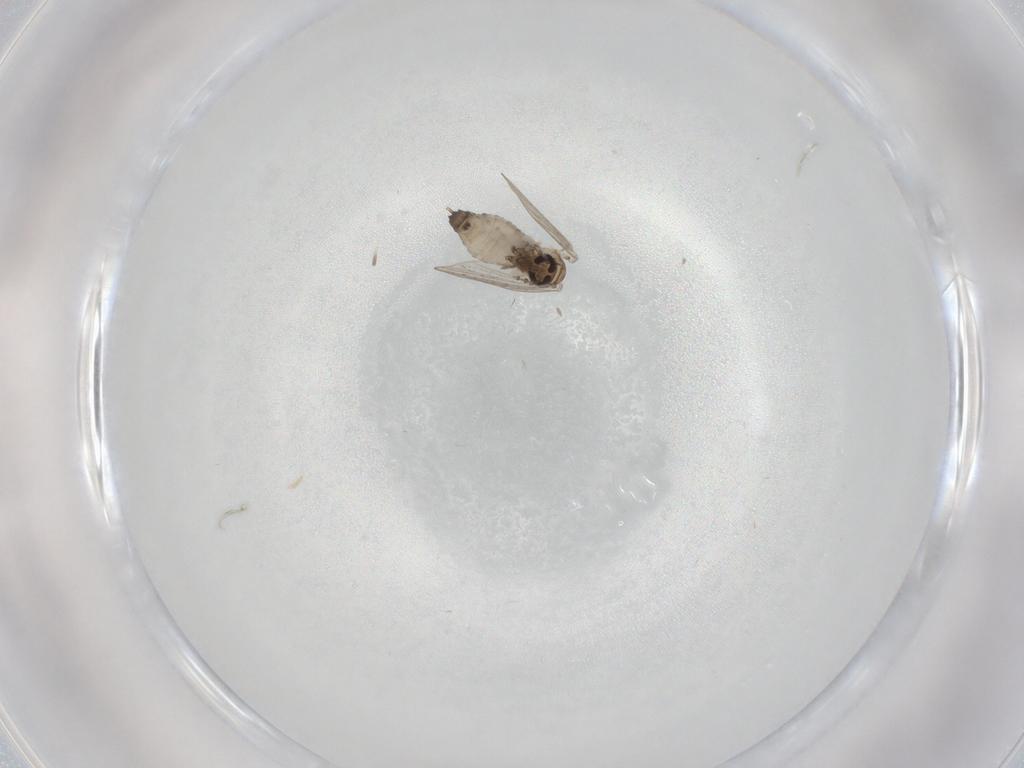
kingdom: Animalia
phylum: Arthropoda
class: Insecta
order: Diptera
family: Psychodidae
